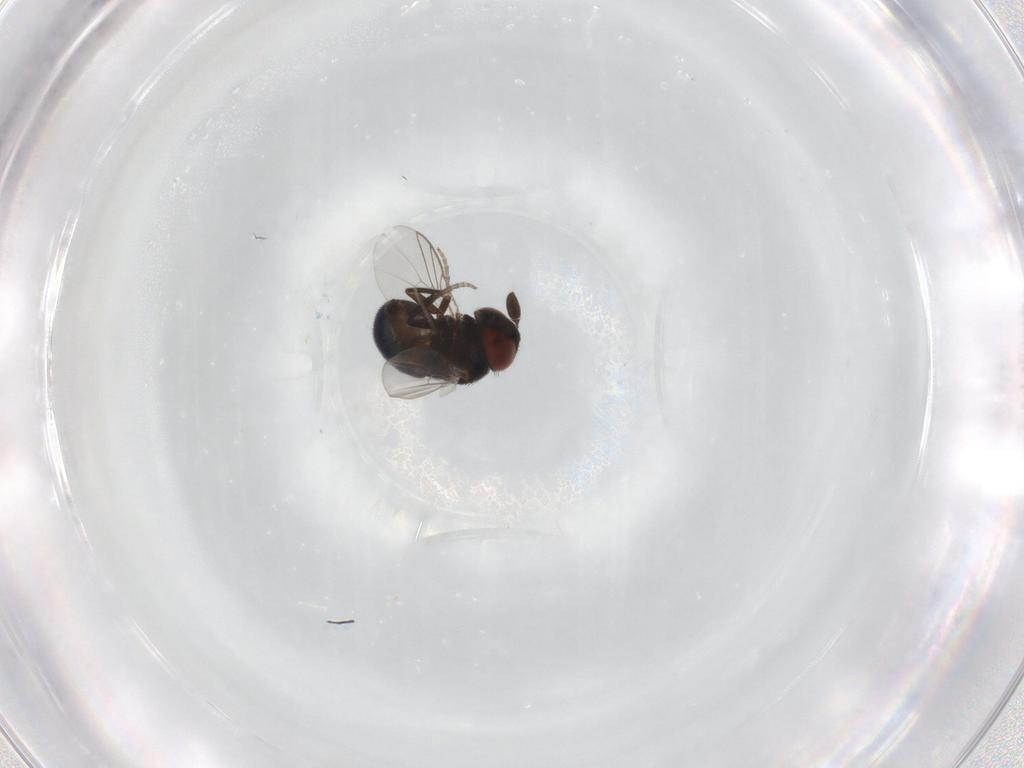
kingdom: Animalia
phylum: Arthropoda
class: Insecta
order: Diptera
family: Cryptochetidae
